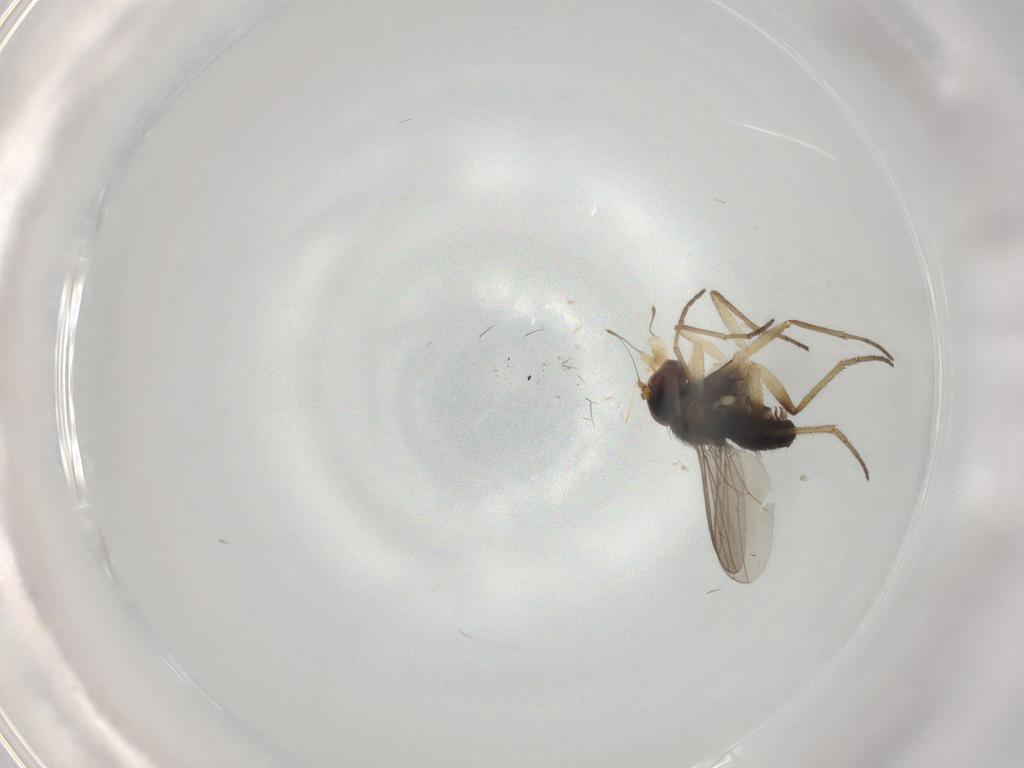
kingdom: Animalia
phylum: Arthropoda
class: Insecta
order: Diptera
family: Dolichopodidae
